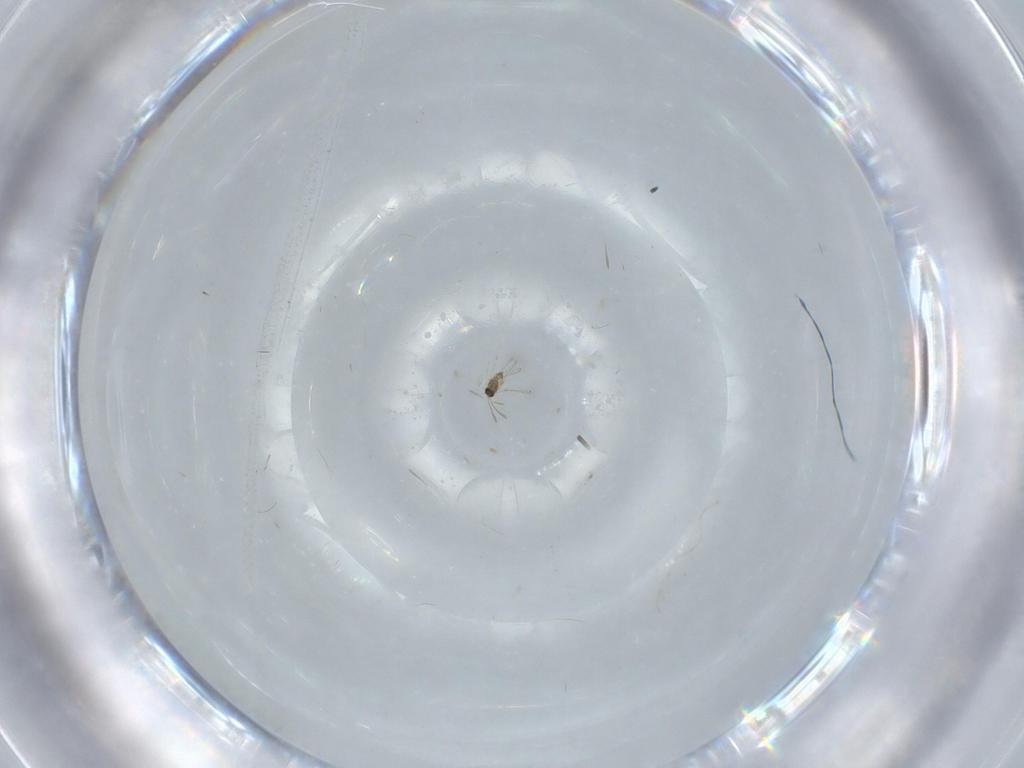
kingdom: Animalia
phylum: Arthropoda
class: Insecta
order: Hymenoptera
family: Mymaridae
